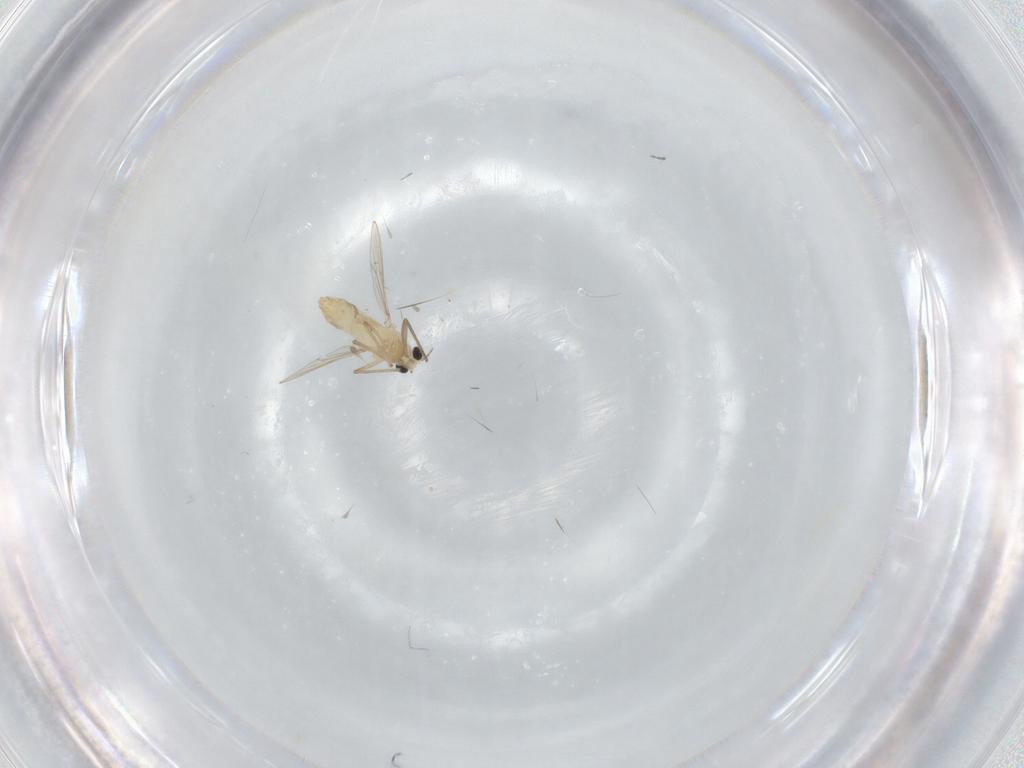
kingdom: Animalia
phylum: Arthropoda
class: Insecta
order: Diptera
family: Chironomidae
